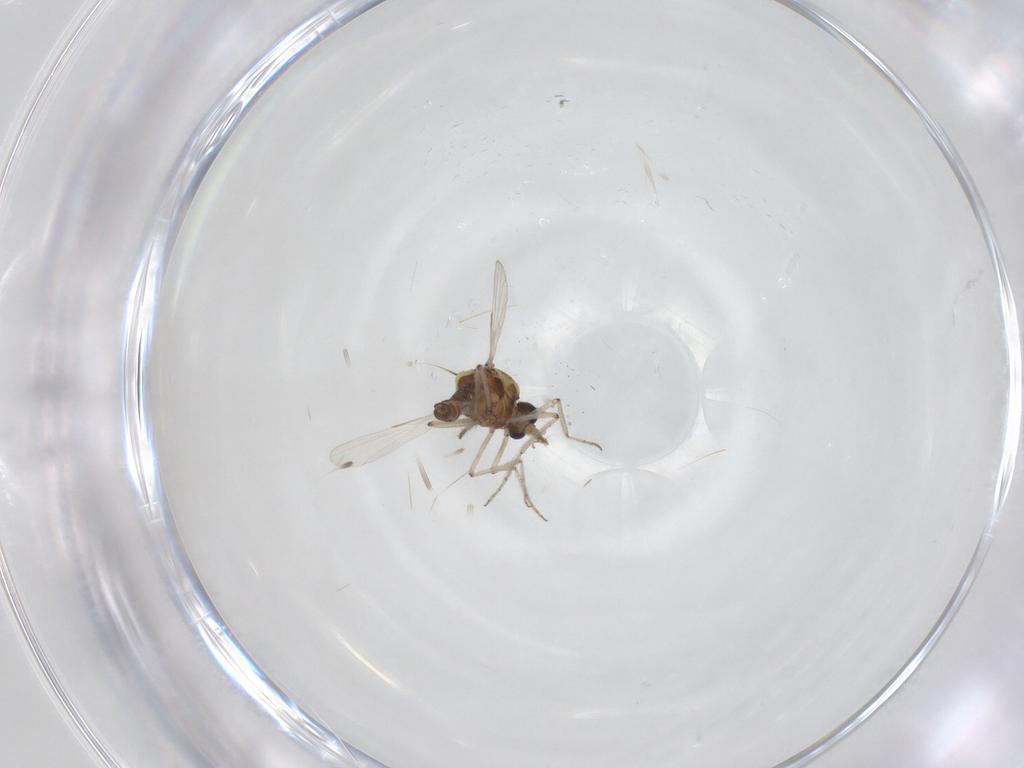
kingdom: Animalia
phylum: Arthropoda
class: Insecta
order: Diptera
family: Ceratopogonidae
